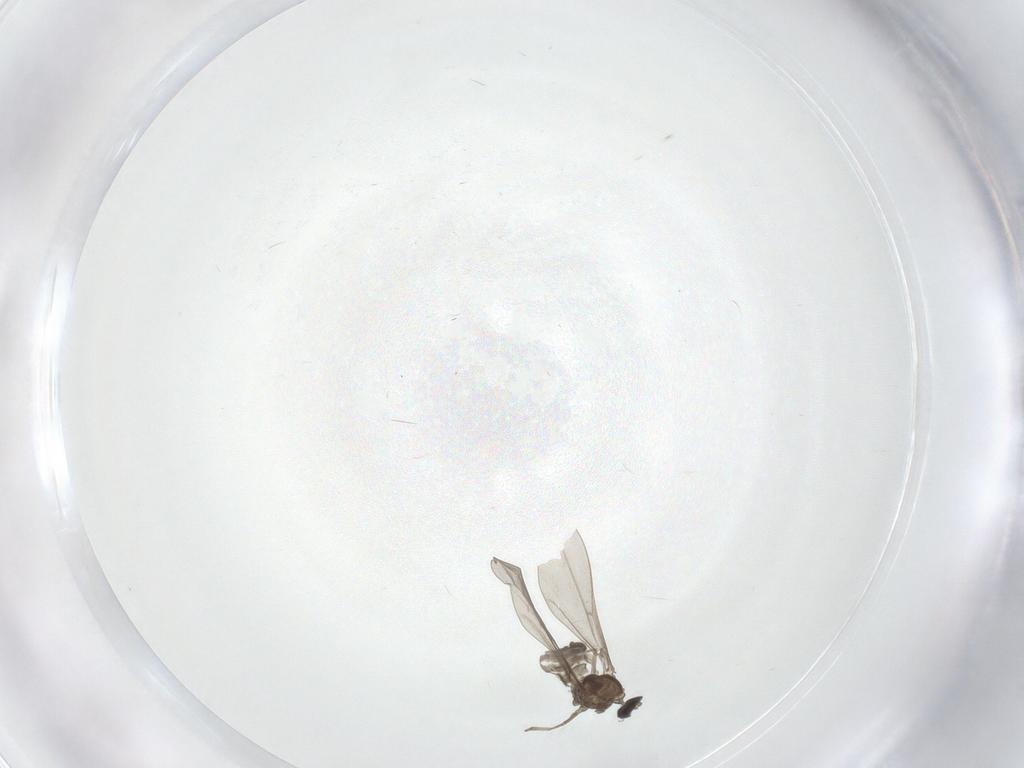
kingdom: Animalia
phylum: Arthropoda
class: Insecta
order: Diptera
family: Cecidomyiidae
